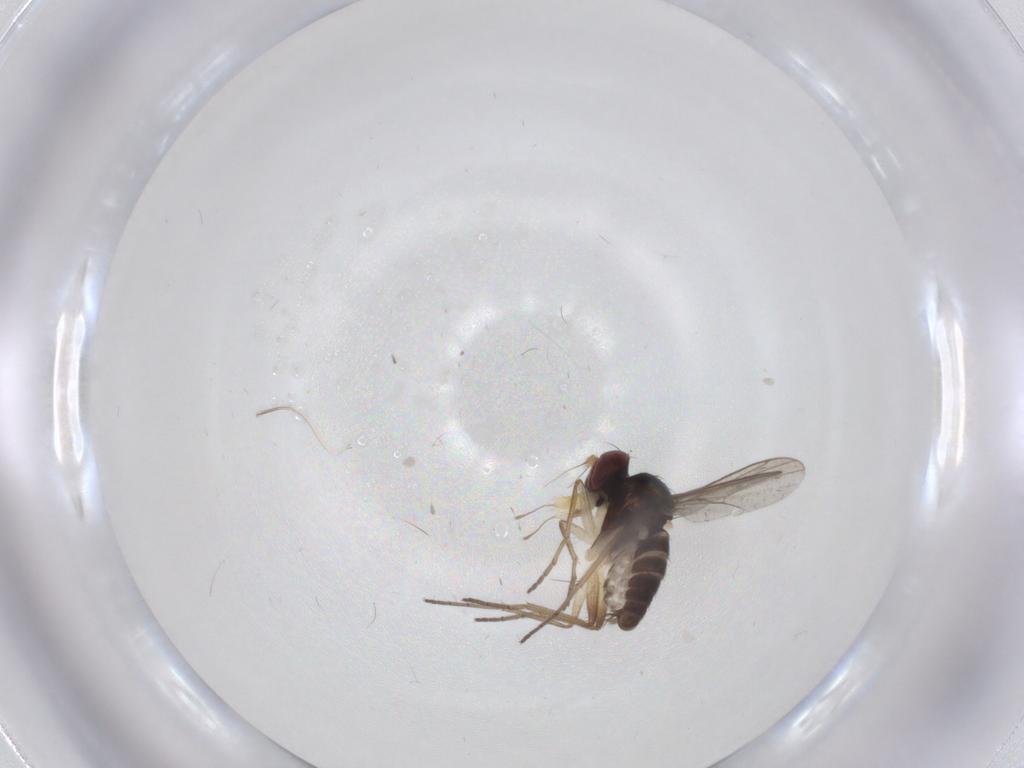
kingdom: Animalia
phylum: Arthropoda
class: Insecta
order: Diptera
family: Dolichopodidae
